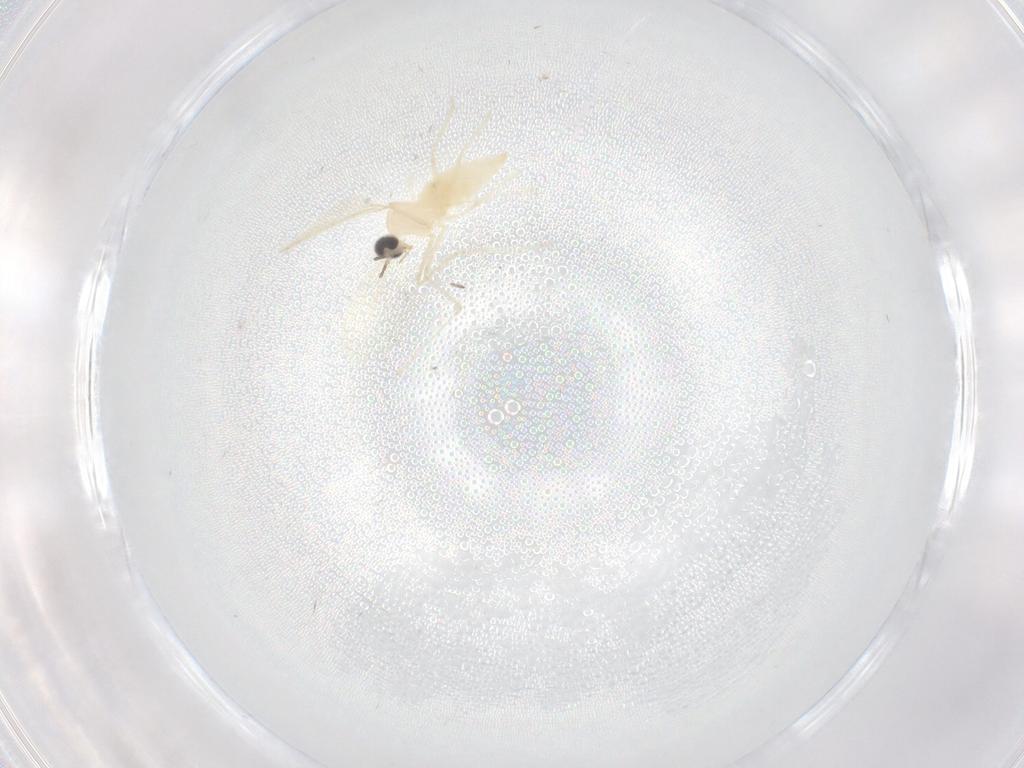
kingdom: Animalia
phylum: Arthropoda
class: Insecta
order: Diptera
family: Cecidomyiidae
